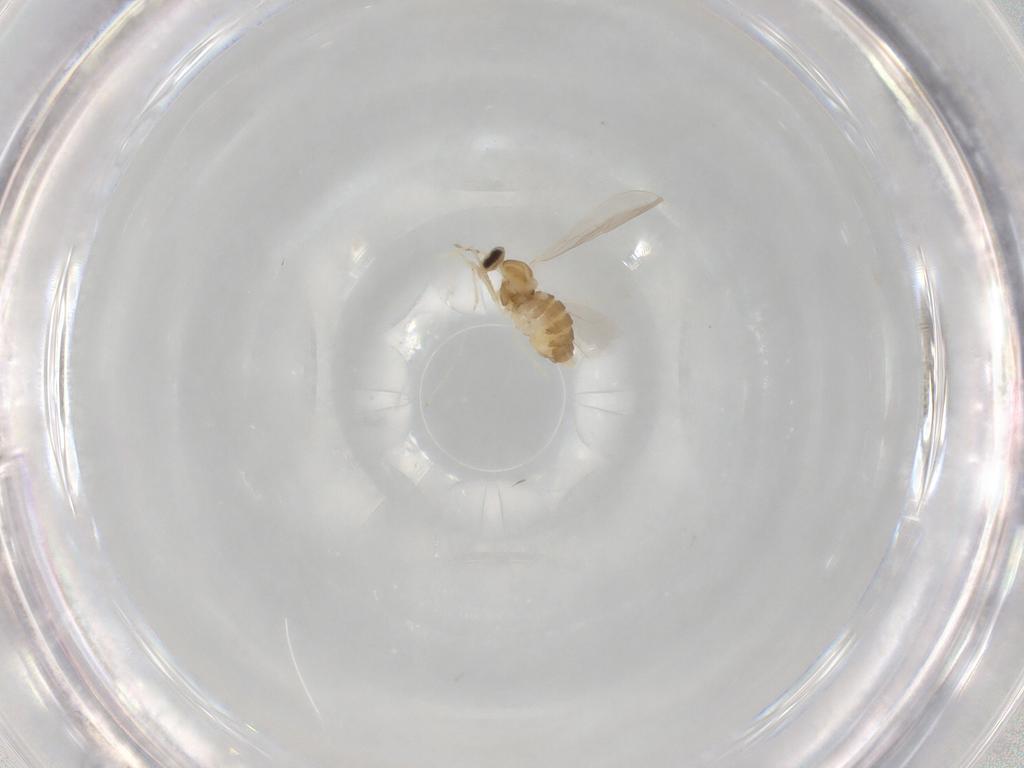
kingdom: Animalia
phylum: Arthropoda
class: Insecta
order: Diptera
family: Cecidomyiidae
